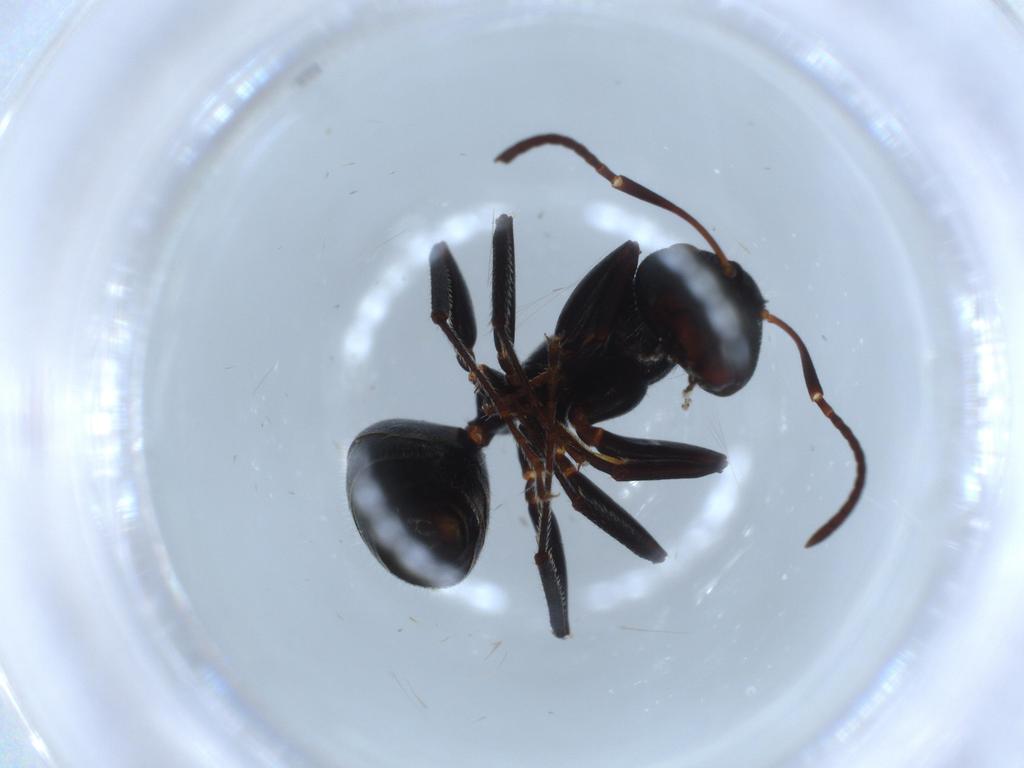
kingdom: Animalia
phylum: Arthropoda
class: Insecta
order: Hymenoptera
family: Formicidae
